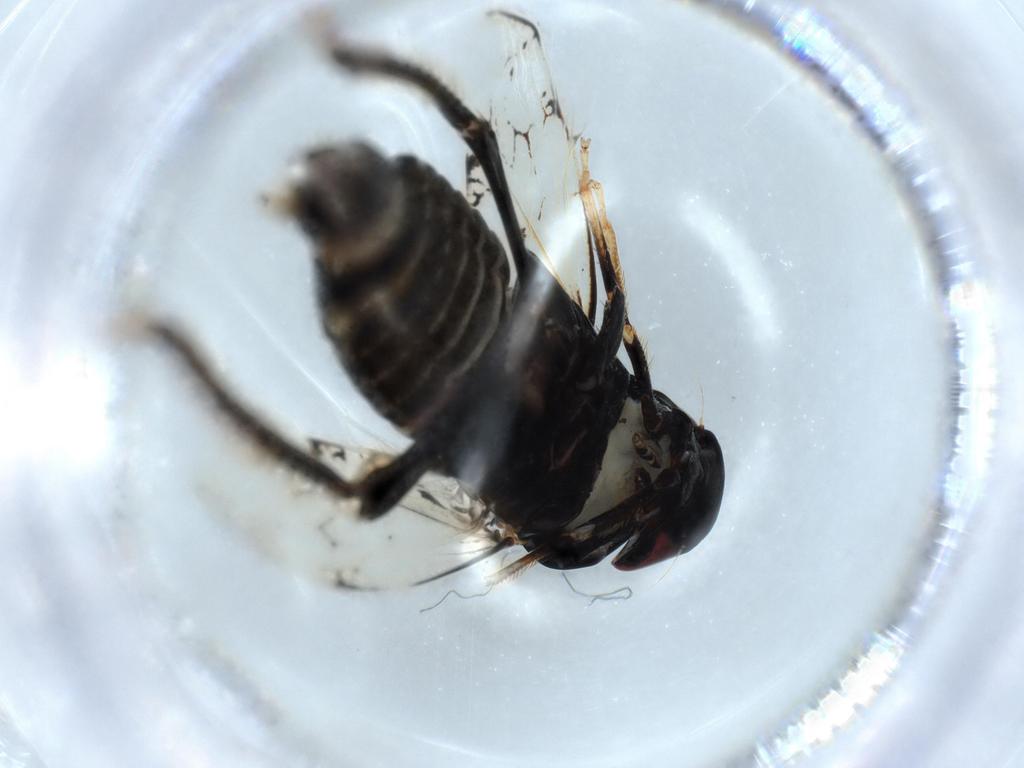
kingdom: Animalia
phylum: Arthropoda
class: Insecta
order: Hemiptera
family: Cicadellidae
